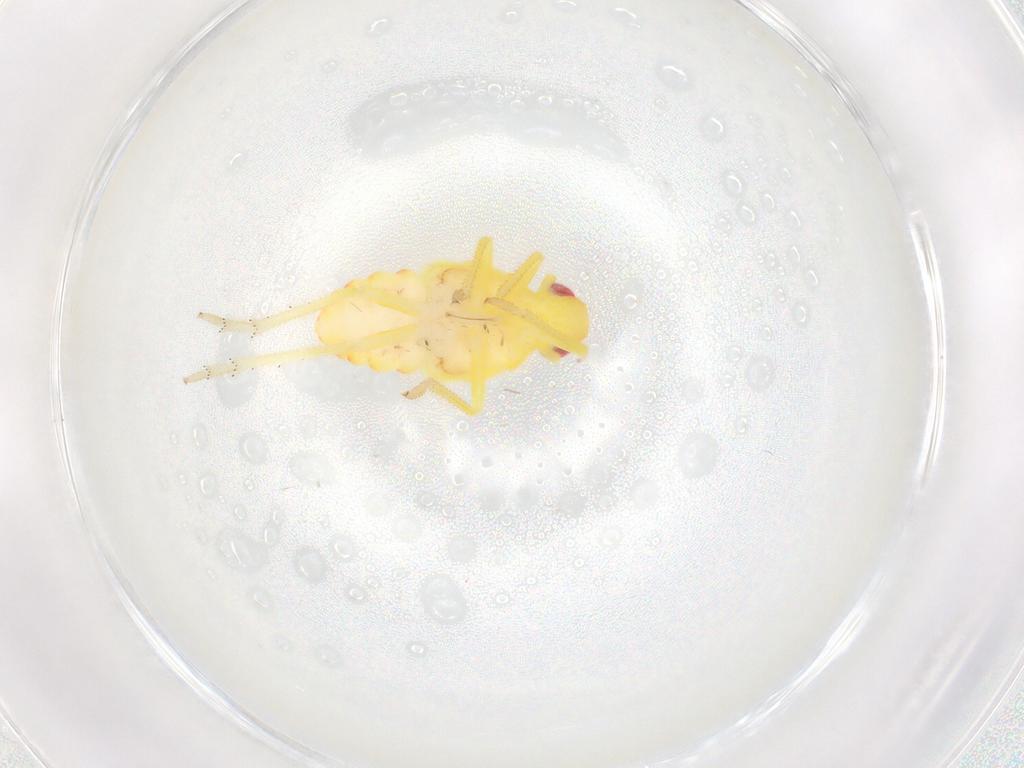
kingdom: Animalia
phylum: Arthropoda
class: Insecta
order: Hemiptera
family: Tropiduchidae
